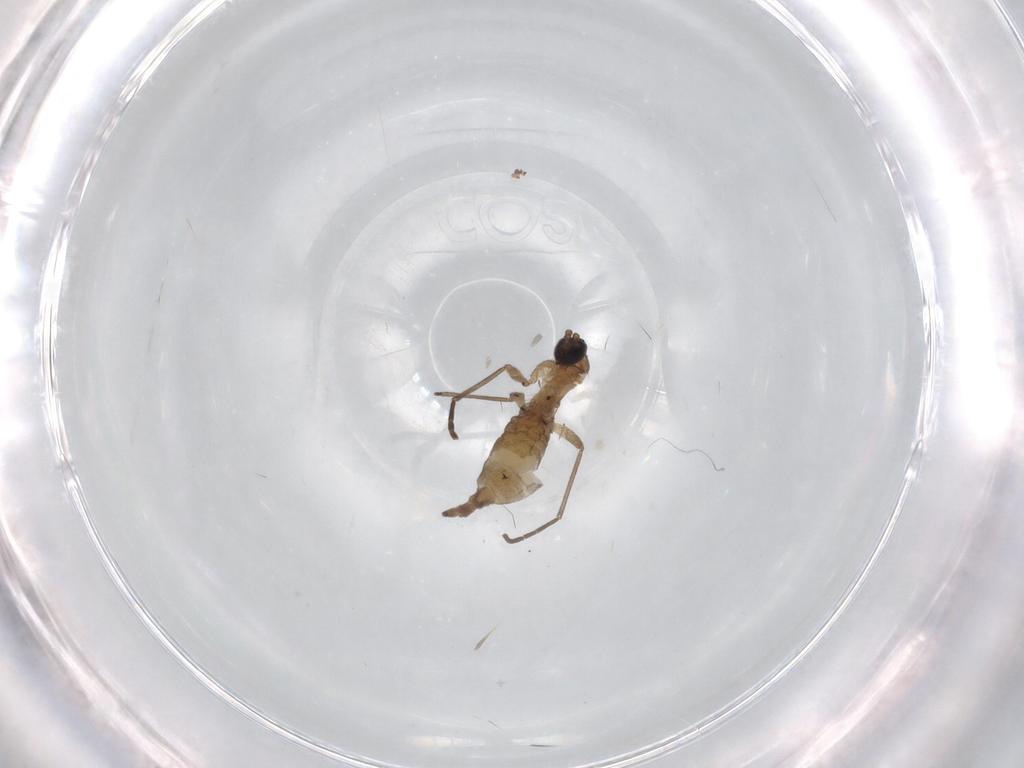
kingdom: Animalia
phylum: Arthropoda
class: Insecta
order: Diptera
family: Sciaridae
